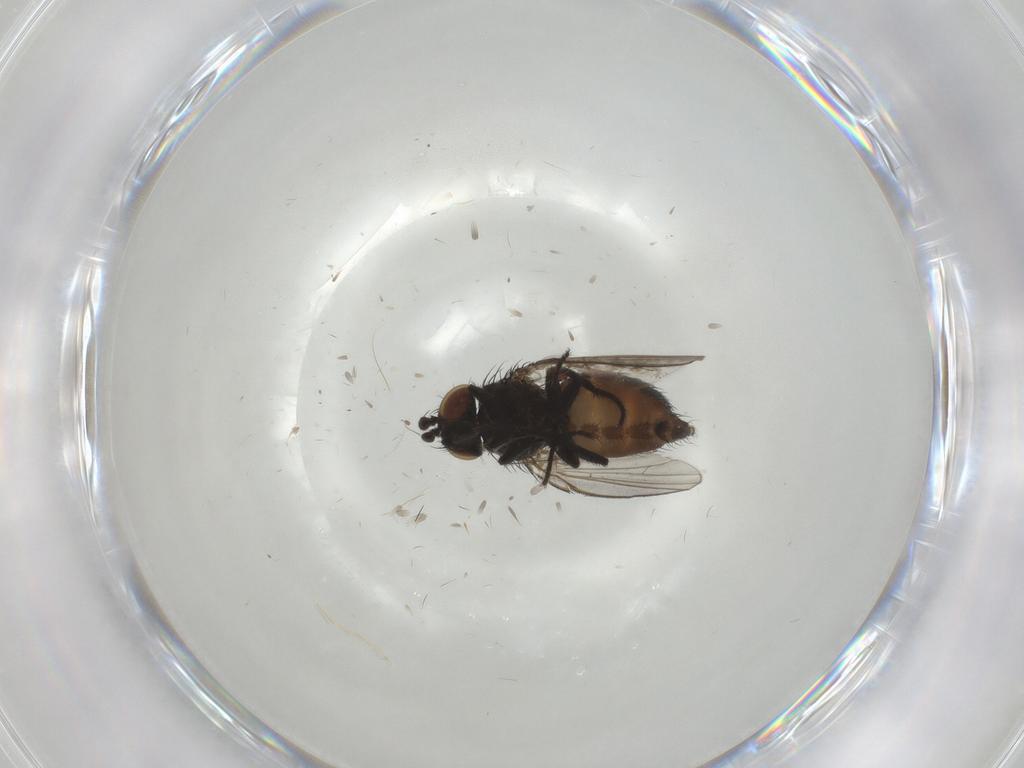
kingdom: Animalia
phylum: Arthropoda
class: Insecta
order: Diptera
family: Milichiidae
